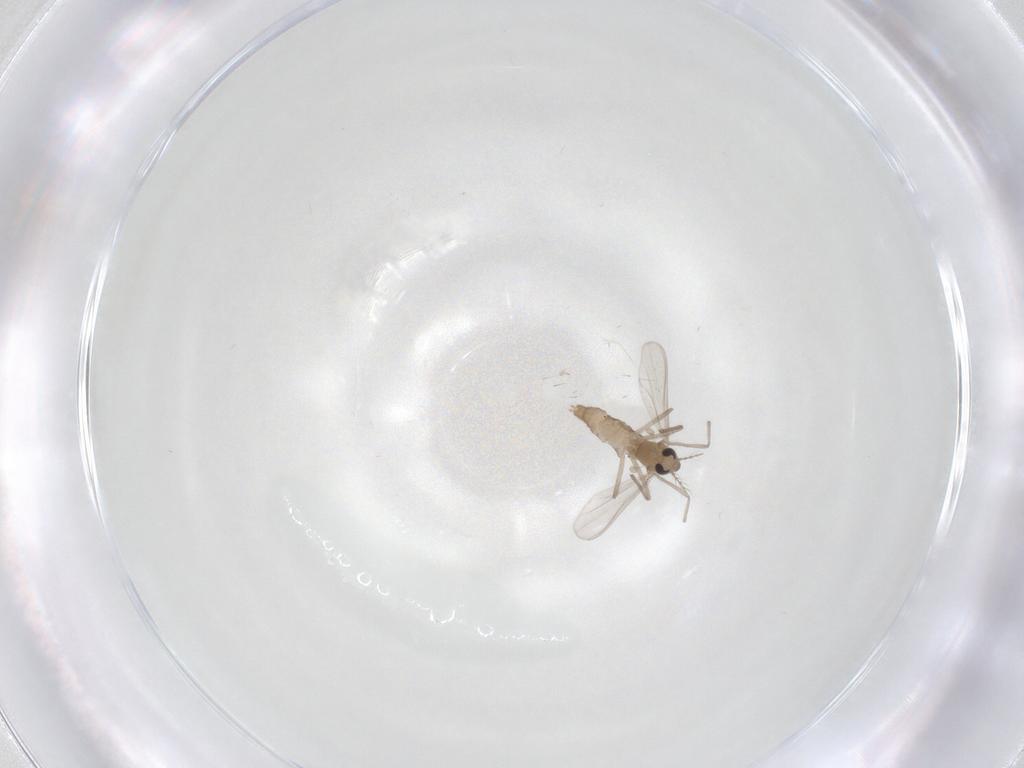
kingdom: Animalia
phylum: Arthropoda
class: Insecta
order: Diptera
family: Chironomidae
